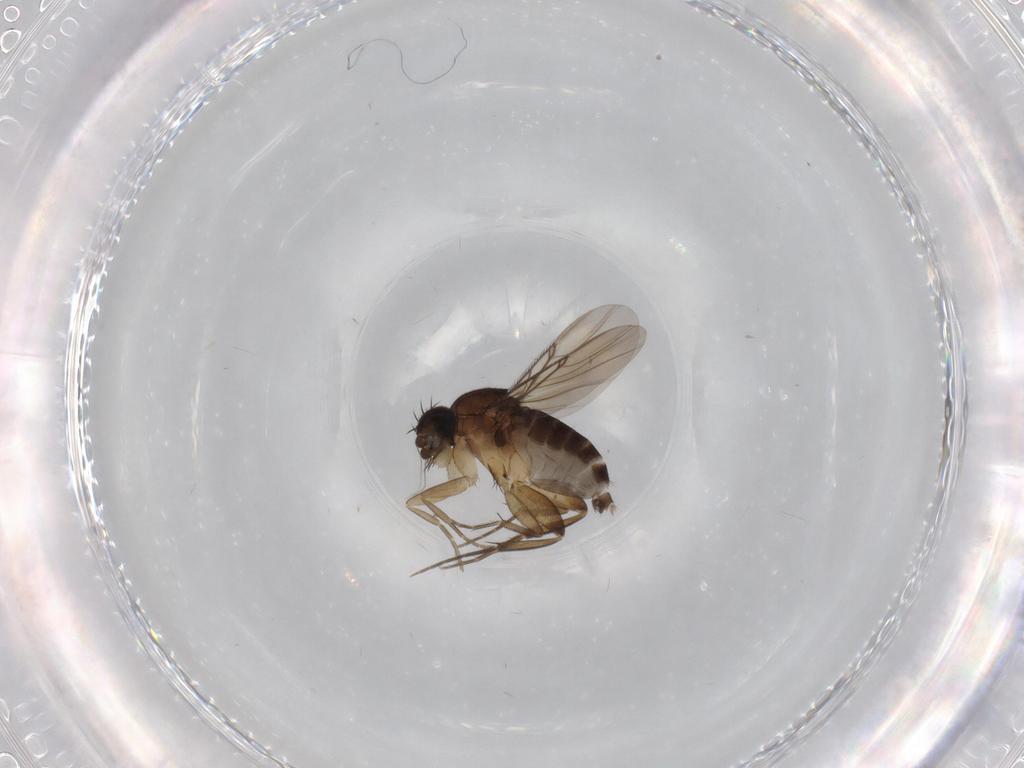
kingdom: Animalia
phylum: Arthropoda
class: Insecta
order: Diptera
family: Phoridae
